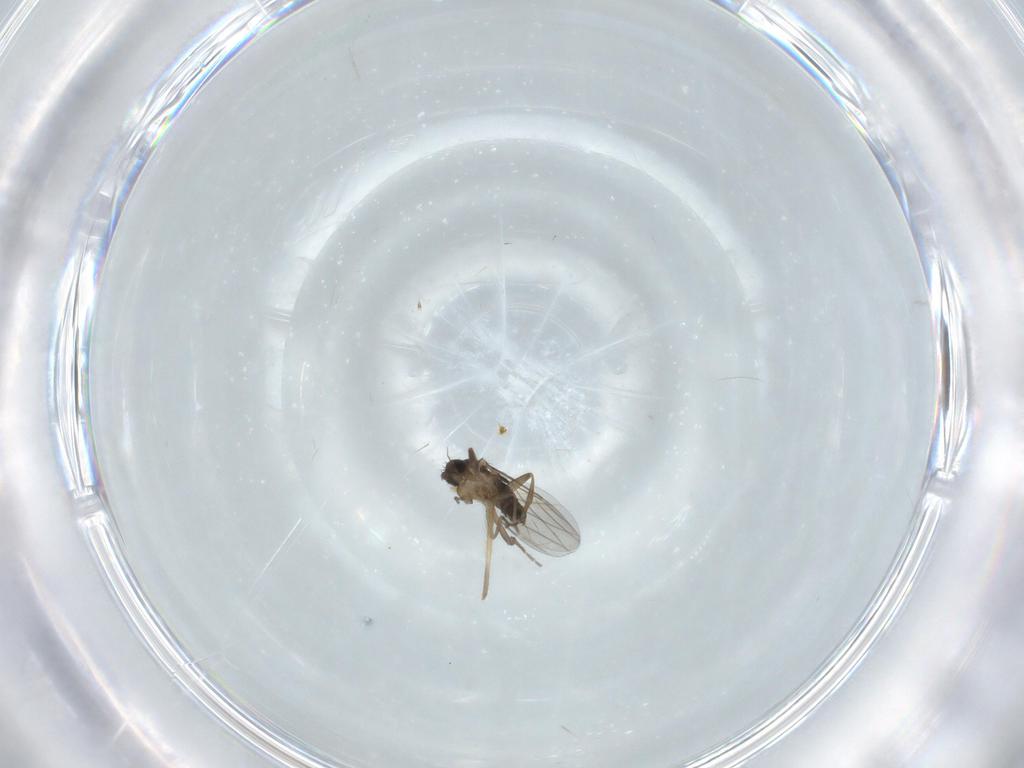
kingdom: Animalia
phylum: Arthropoda
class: Insecta
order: Diptera
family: Phoridae
